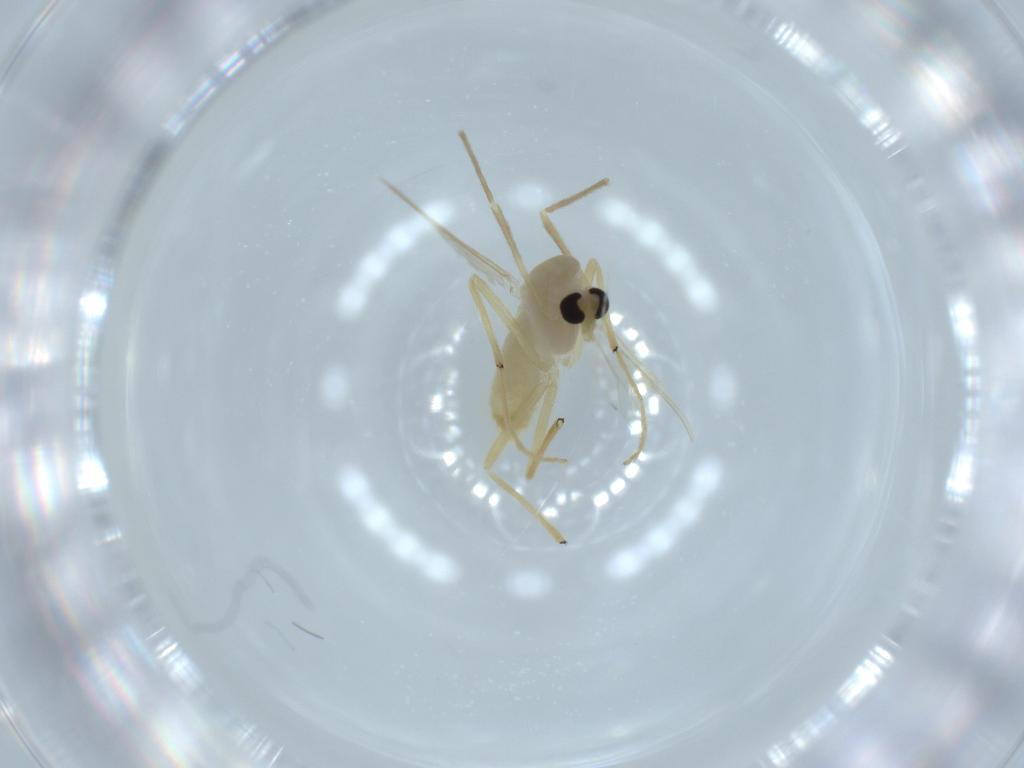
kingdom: Animalia
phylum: Arthropoda
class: Insecta
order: Diptera
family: Chironomidae
